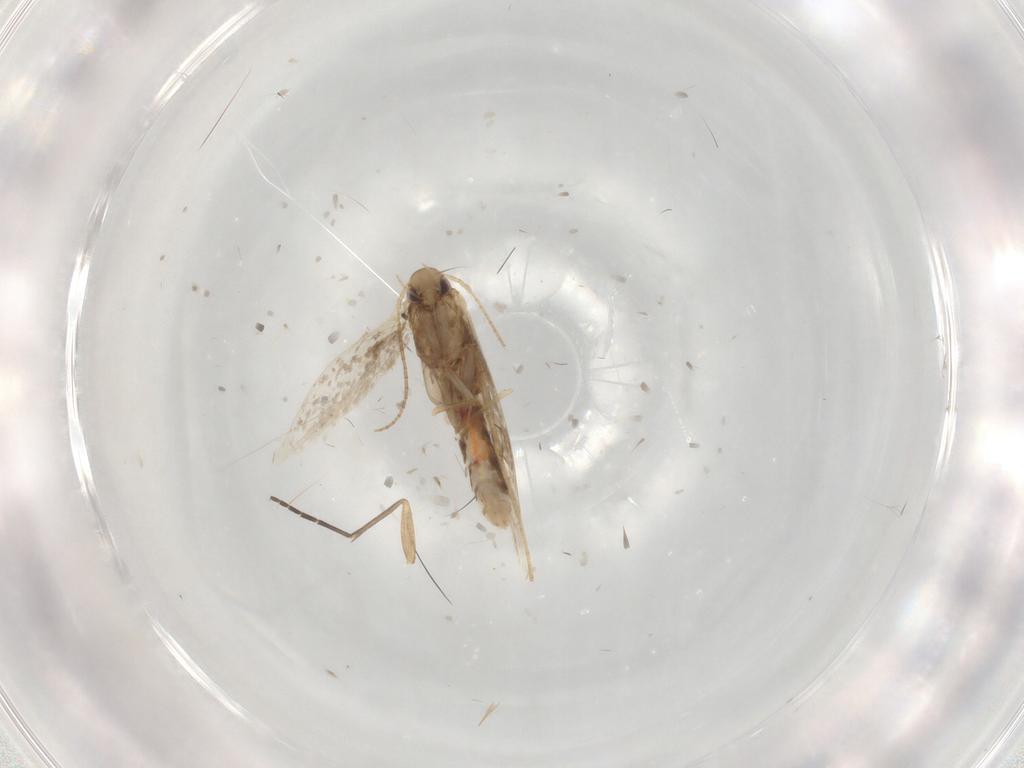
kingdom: Animalia
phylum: Arthropoda
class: Insecta
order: Lepidoptera
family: Gracillariidae
